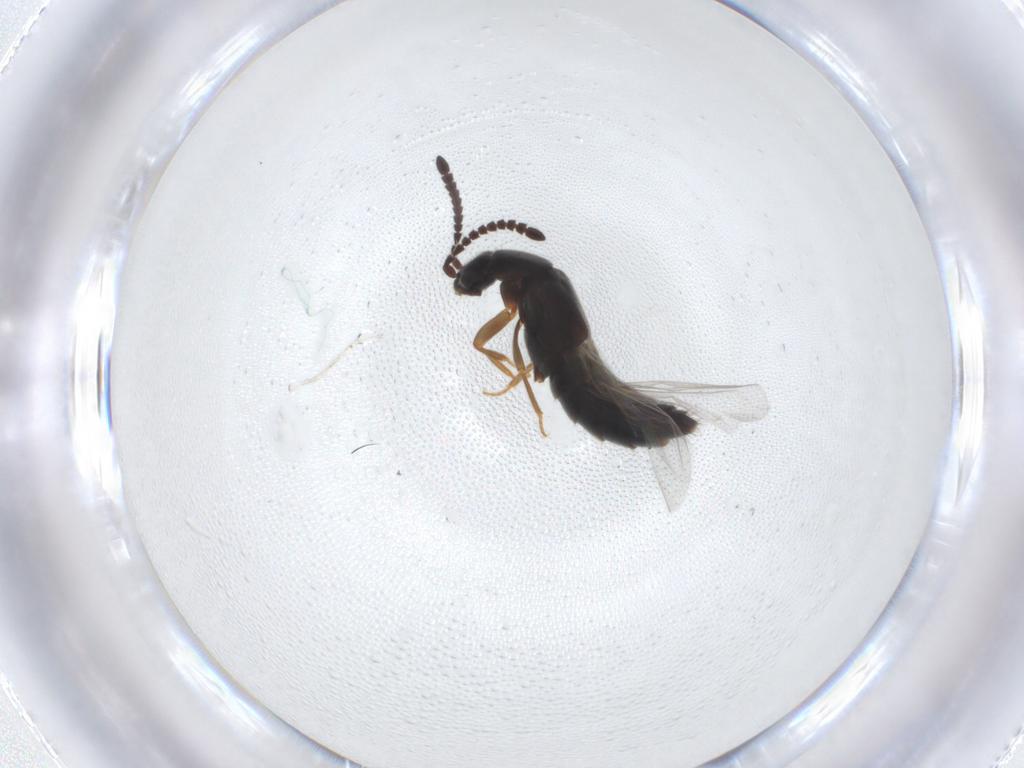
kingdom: Animalia
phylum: Arthropoda
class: Insecta
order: Coleoptera
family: Staphylinidae
